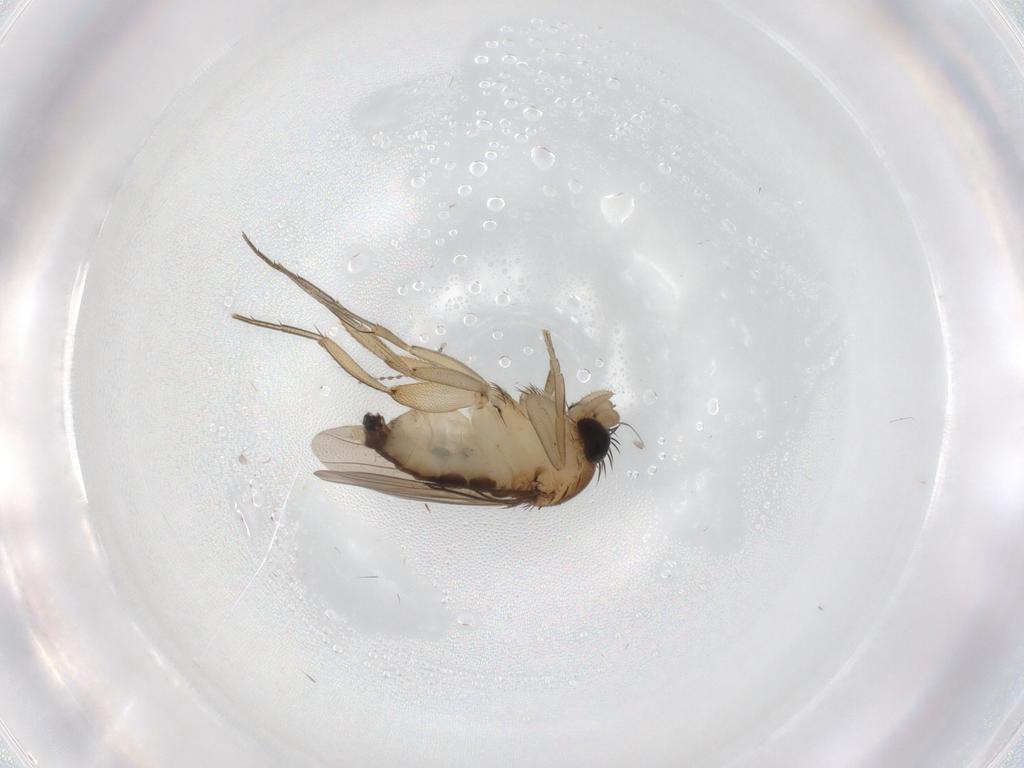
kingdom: Animalia
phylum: Arthropoda
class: Insecta
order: Diptera
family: Phoridae
